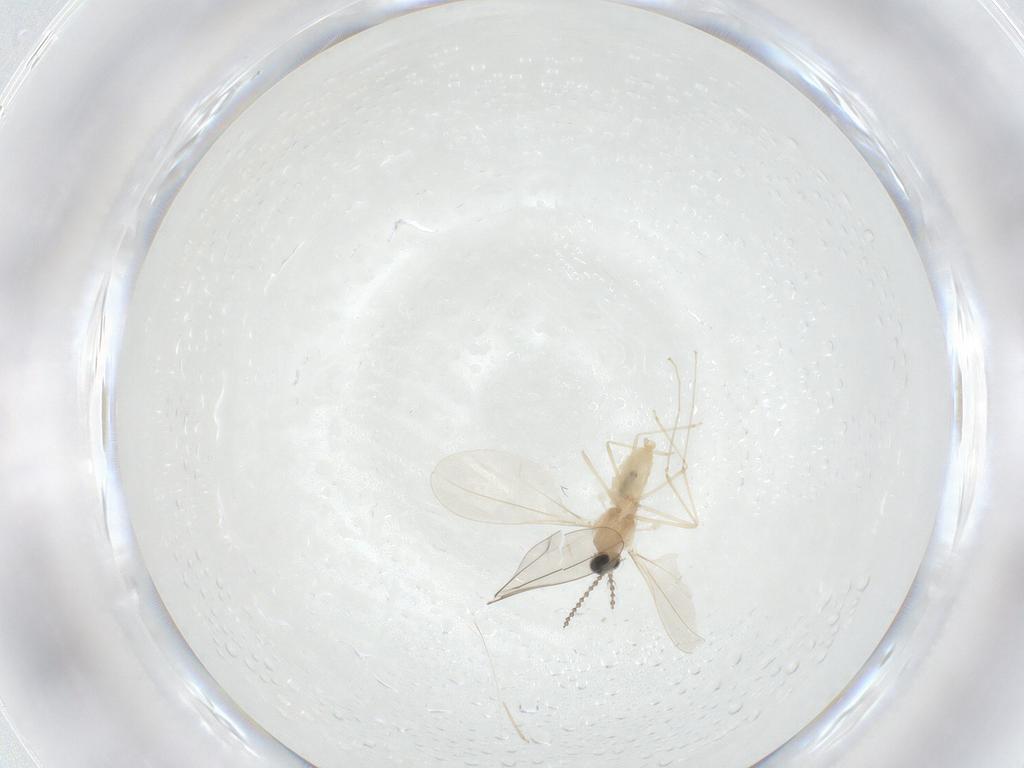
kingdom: Animalia
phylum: Arthropoda
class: Insecta
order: Diptera
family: Cecidomyiidae
